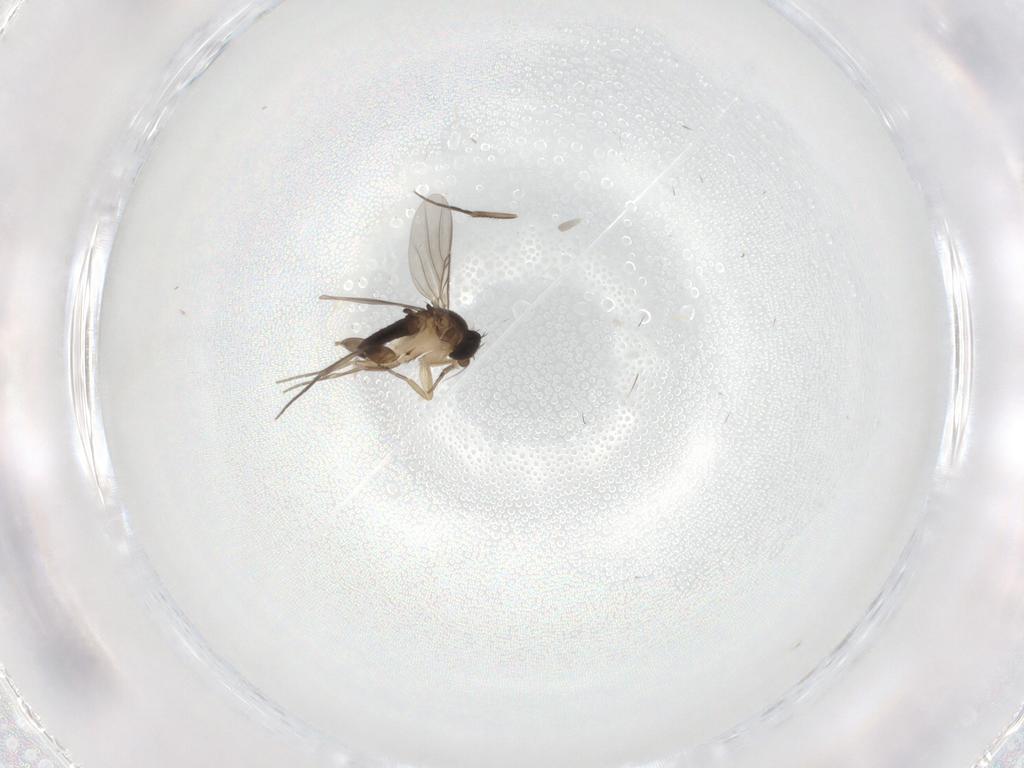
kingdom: Animalia
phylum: Arthropoda
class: Insecta
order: Diptera
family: Phoridae
